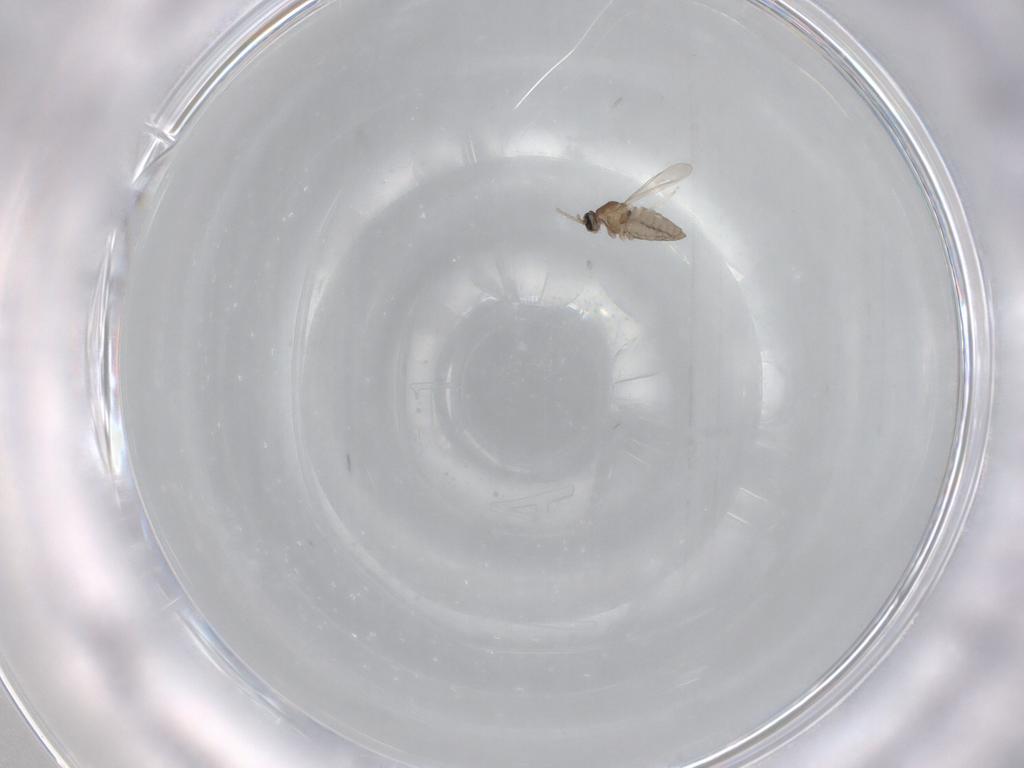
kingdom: Animalia
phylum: Arthropoda
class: Insecta
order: Diptera
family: Cecidomyiidae
